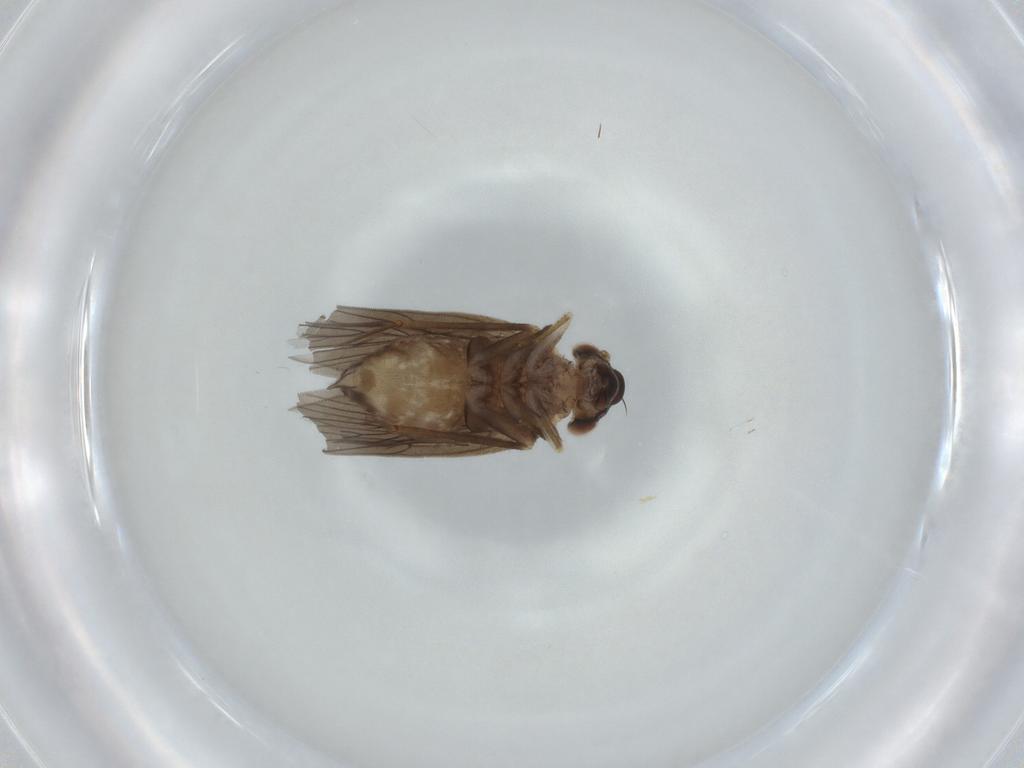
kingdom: Animalia
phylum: Arthropoda
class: Insecta
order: Psocodea
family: Lepidopsocidae
